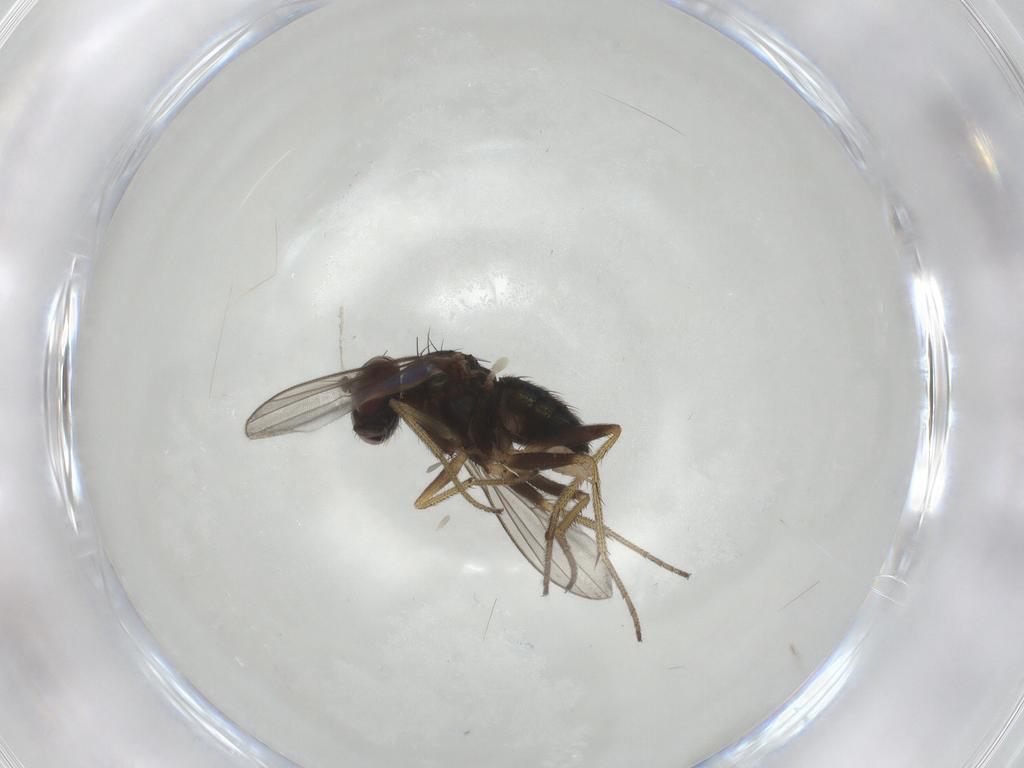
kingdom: Animalia
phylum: Arthropoda
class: Insecta
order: Diptera
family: Dolichopodidae
